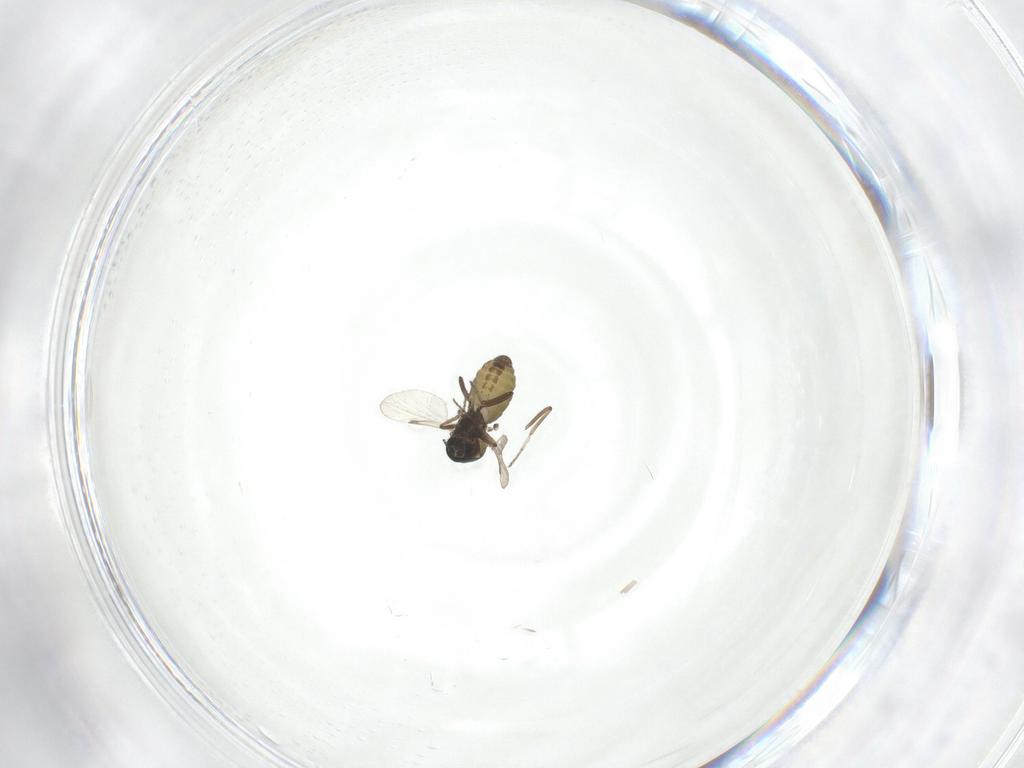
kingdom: Animalia
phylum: Arthropoda
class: Insecta
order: Diptera
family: Ceratopogonidae
